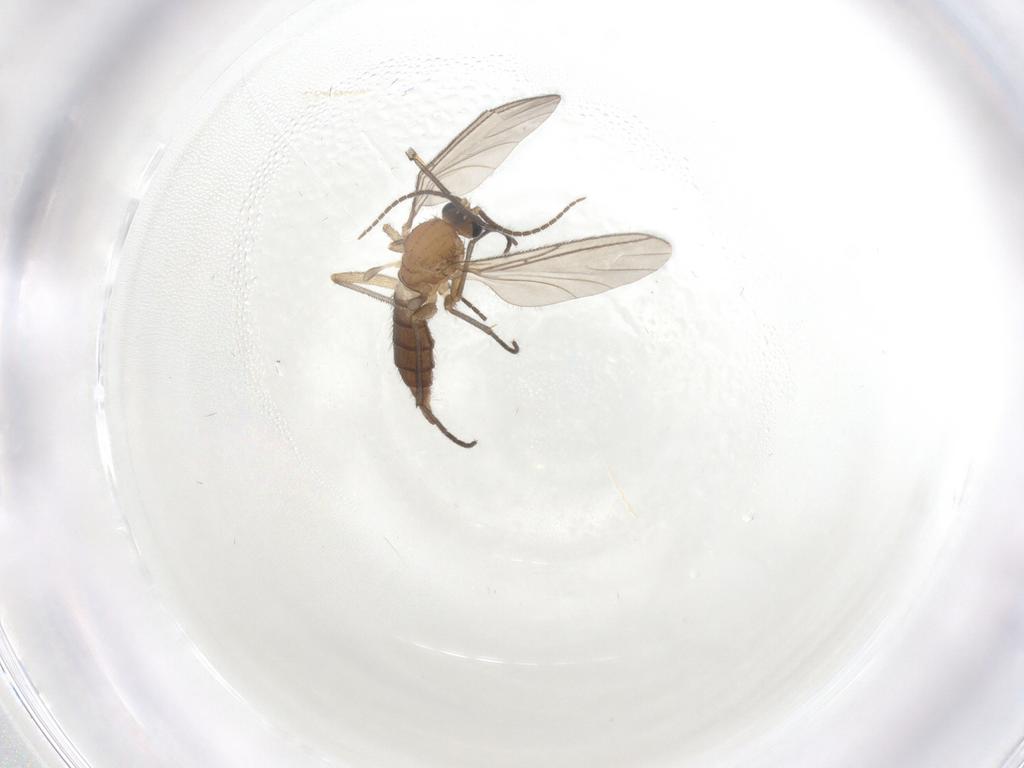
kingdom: Animalia
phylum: Arthropoda
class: Insecta
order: Diptera
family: Sciaridae
